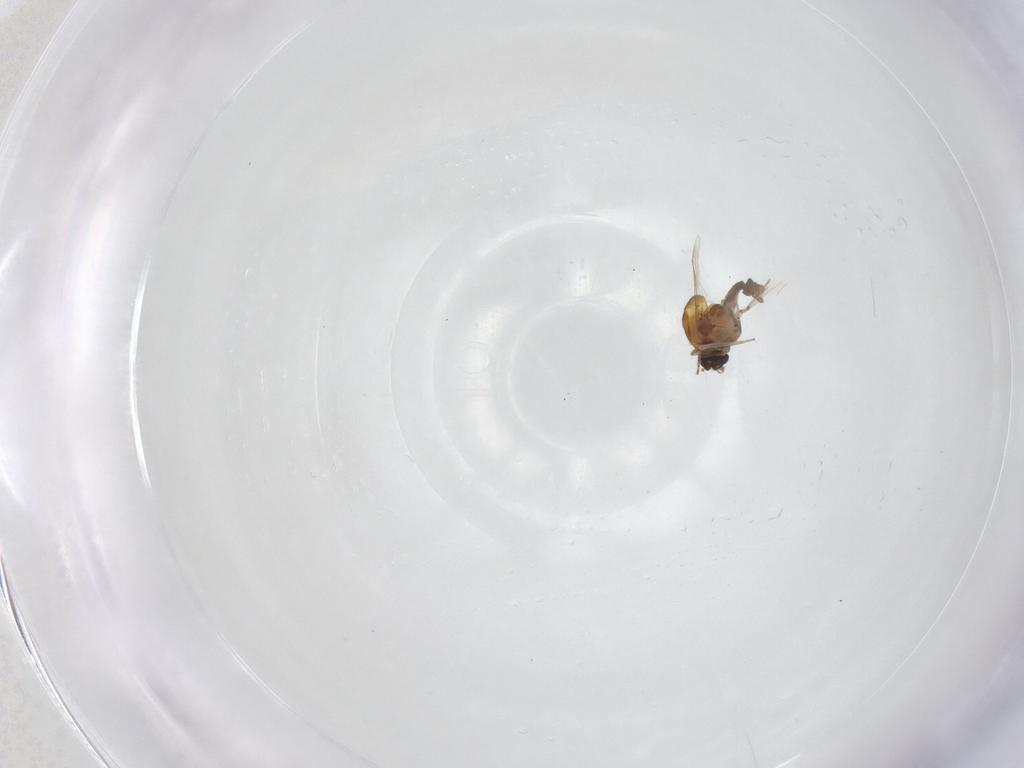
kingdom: Animalia
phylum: Arthropoda
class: Insecta
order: Diptera
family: Ceratopogonidae
